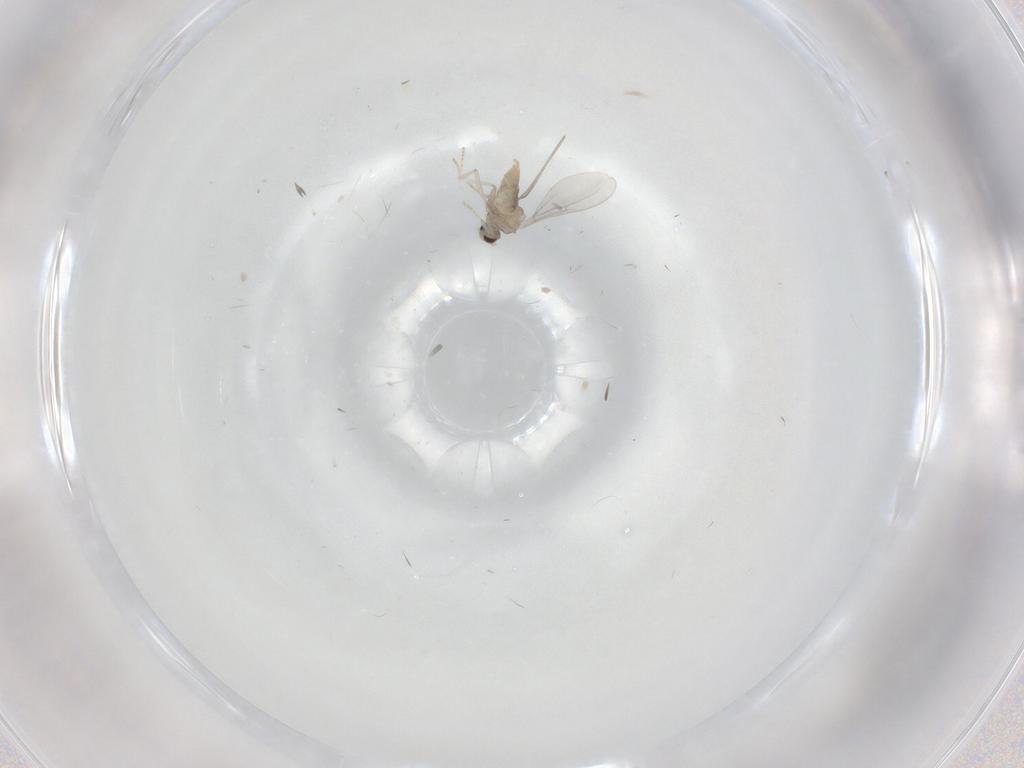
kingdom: Animalia
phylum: Arthropoda
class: Insecta
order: Diptera
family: Cecidomyiidae
